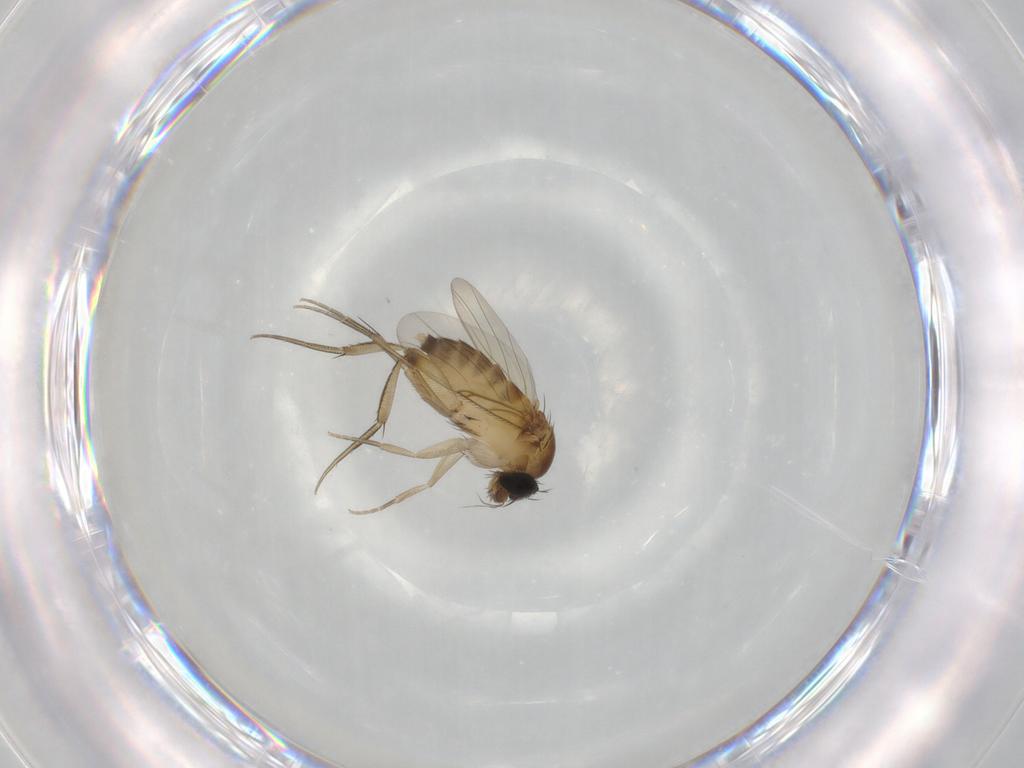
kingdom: Animalia
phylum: Arthropoda
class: Insecta
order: Diptera
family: Phoridae
